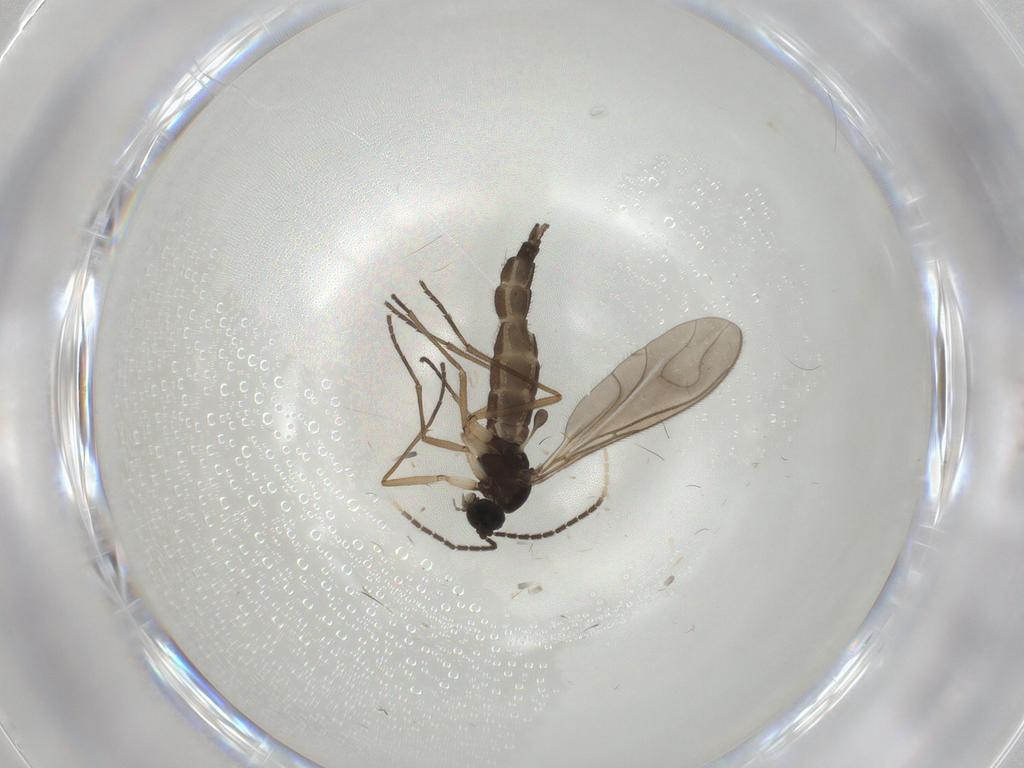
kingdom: Animalia
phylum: Arthropoda
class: Insecta
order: Diptera
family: Sciaridae
